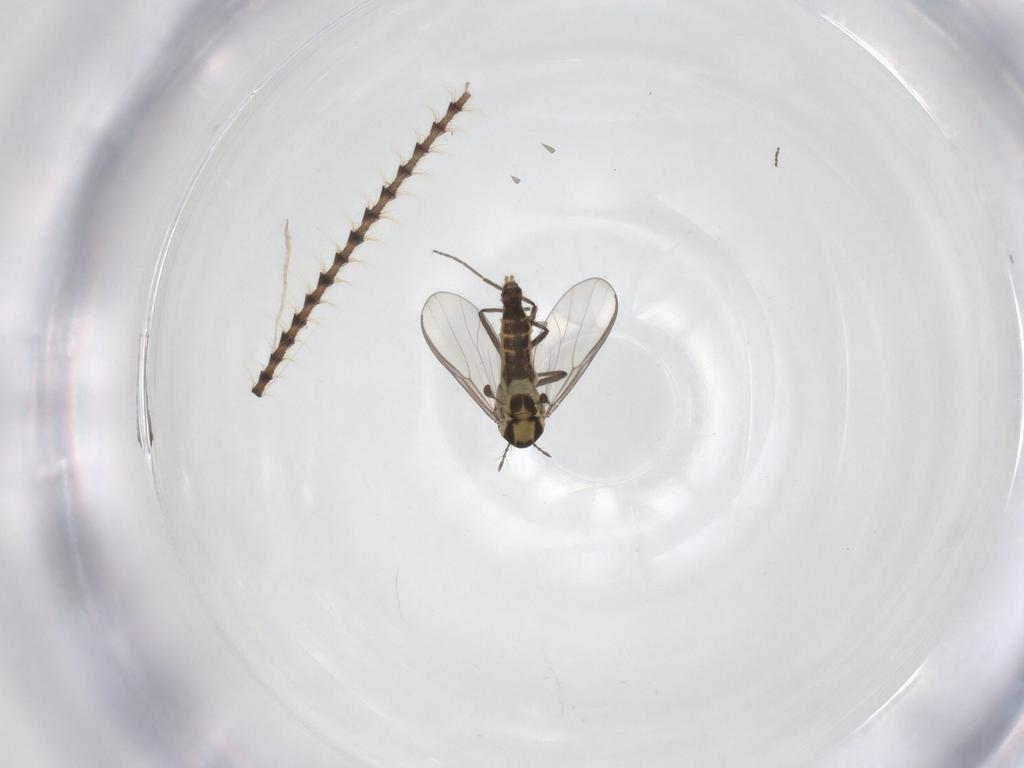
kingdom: Animalia
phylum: Arthropoda
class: Insecta
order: Diptera
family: Chironomidae
